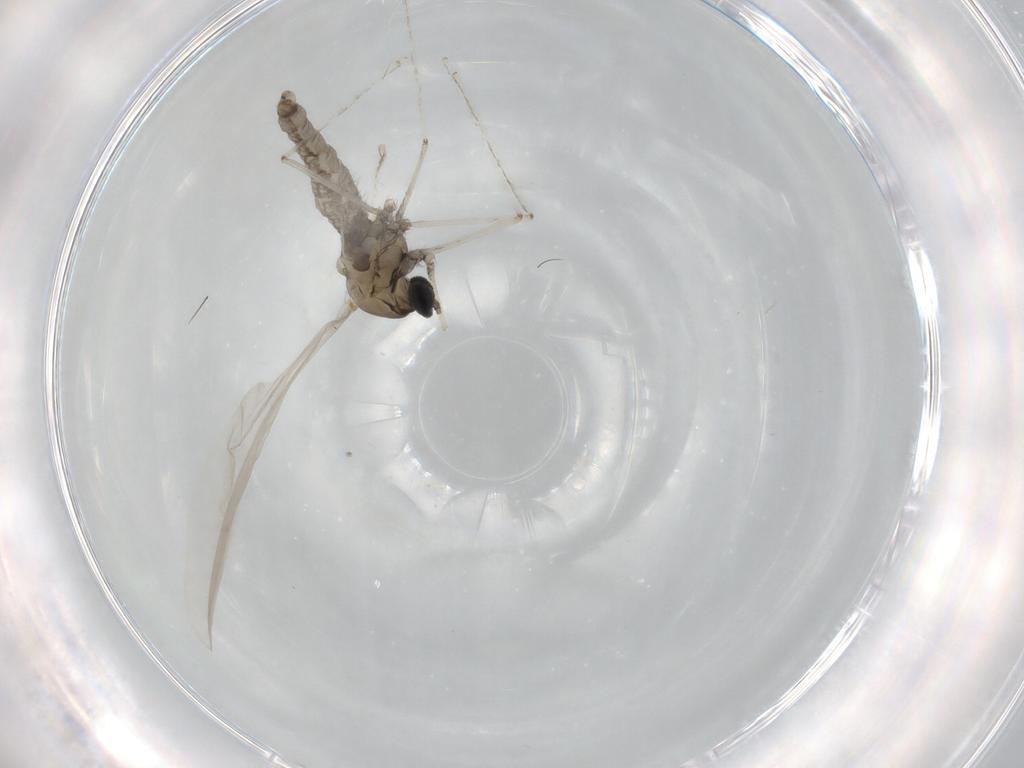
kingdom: Animalia
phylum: Arthropoda
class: Insecta
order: Diptera
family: Cecidomyiidae
